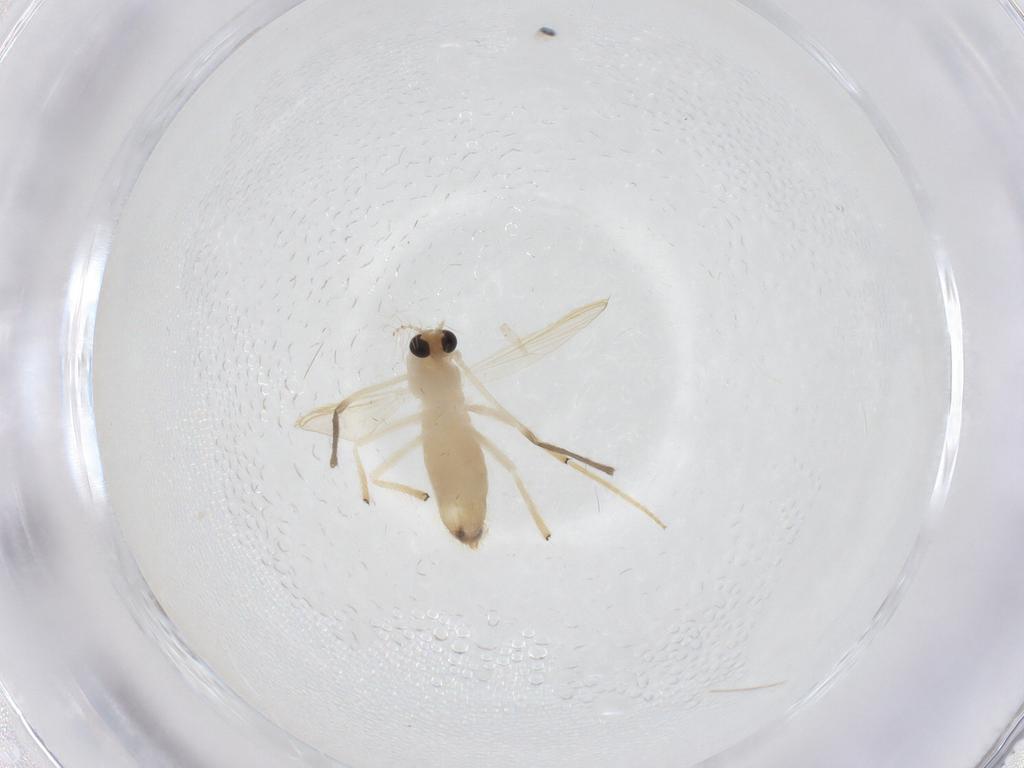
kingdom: Animalia
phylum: Arthropoda
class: Insecta
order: Diptera
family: Chironomidae
